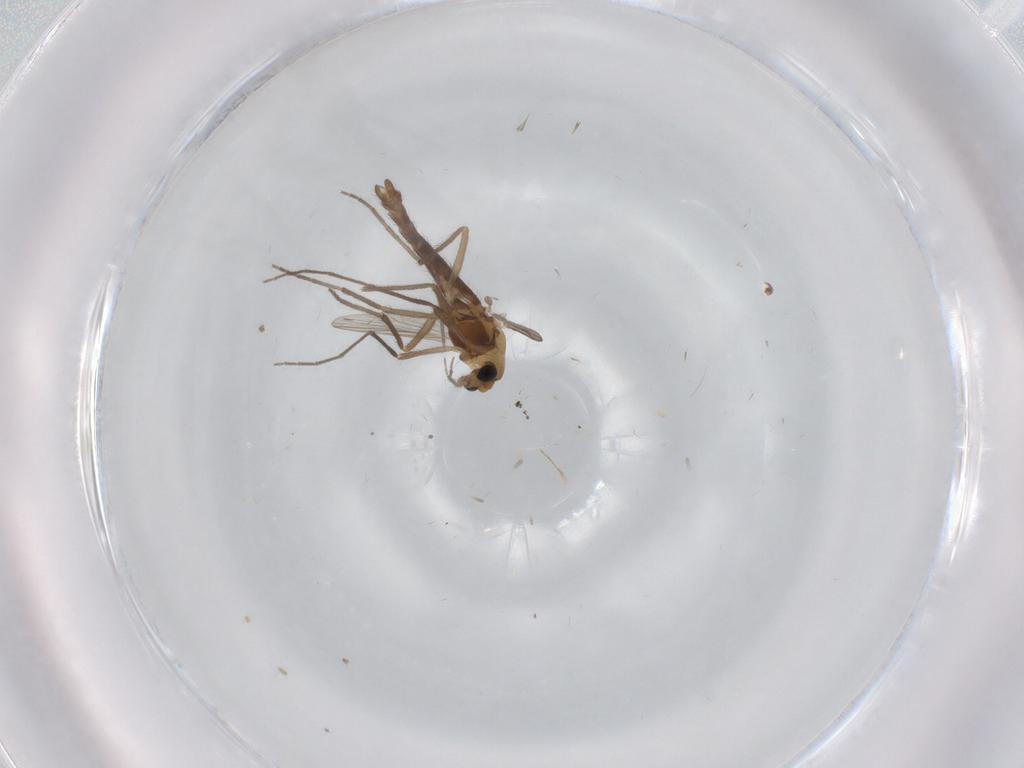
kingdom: Animalia
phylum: Arthropoda
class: Insecta
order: Diptera
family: Chironomidae
